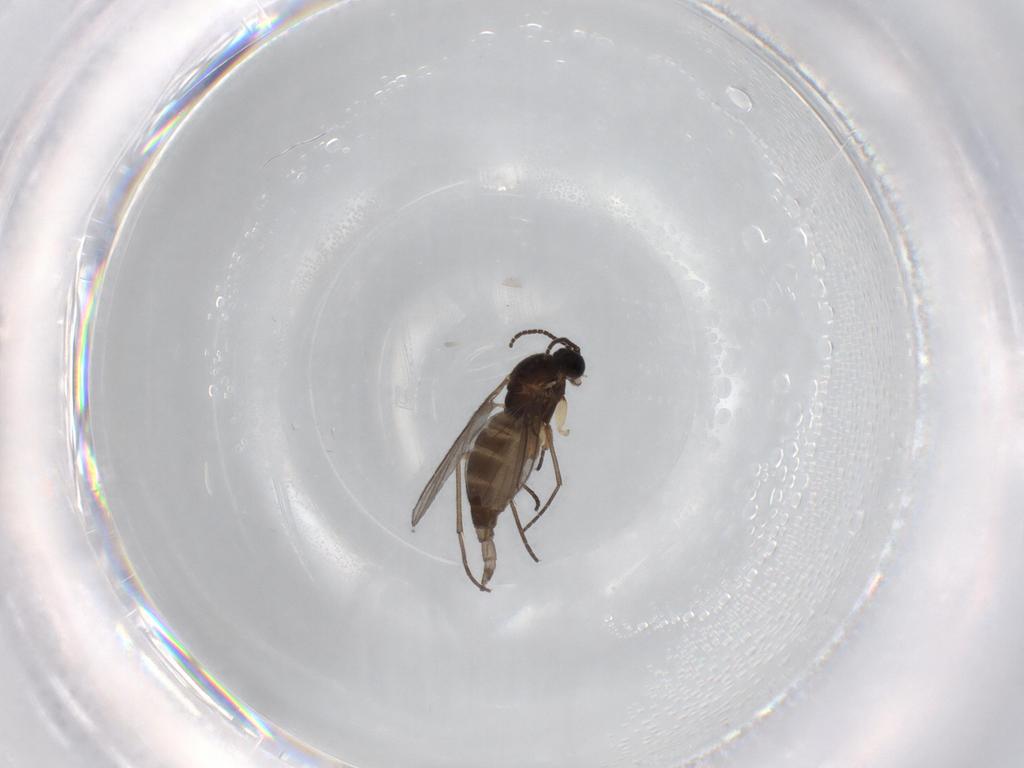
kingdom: Animalia
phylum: Arthropoda
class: Insecta
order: Diptera
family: Sciaridae
